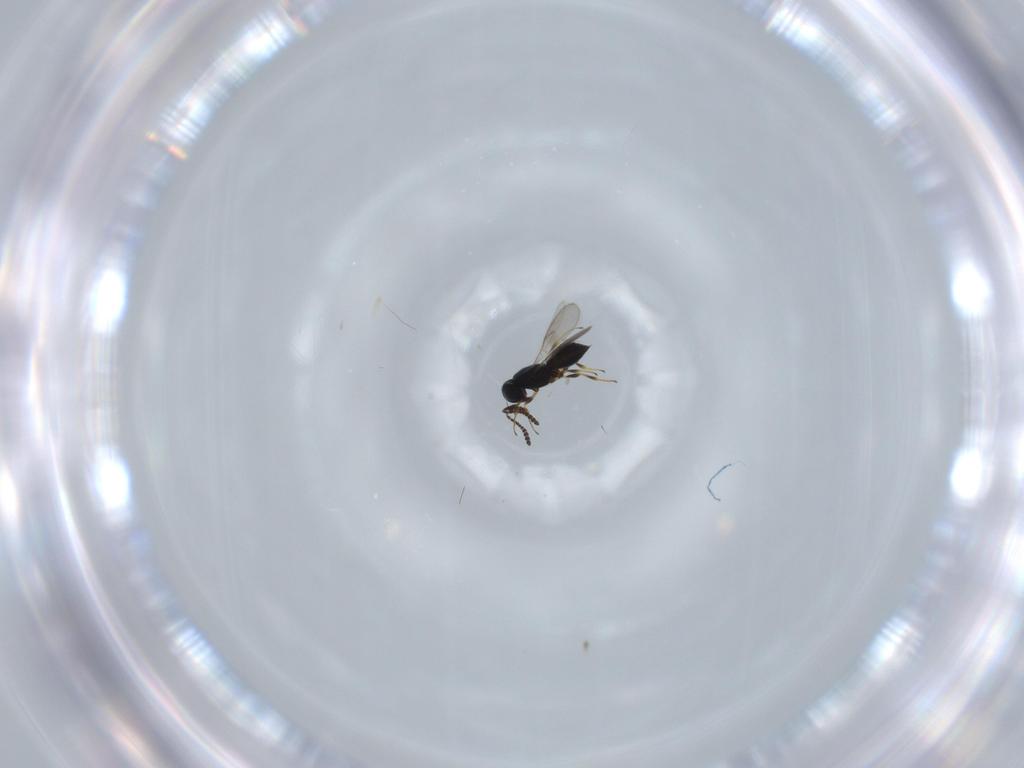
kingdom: Animalia
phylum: Arthropoda
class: Insecta
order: Hymenoptera
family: Scelionidae
